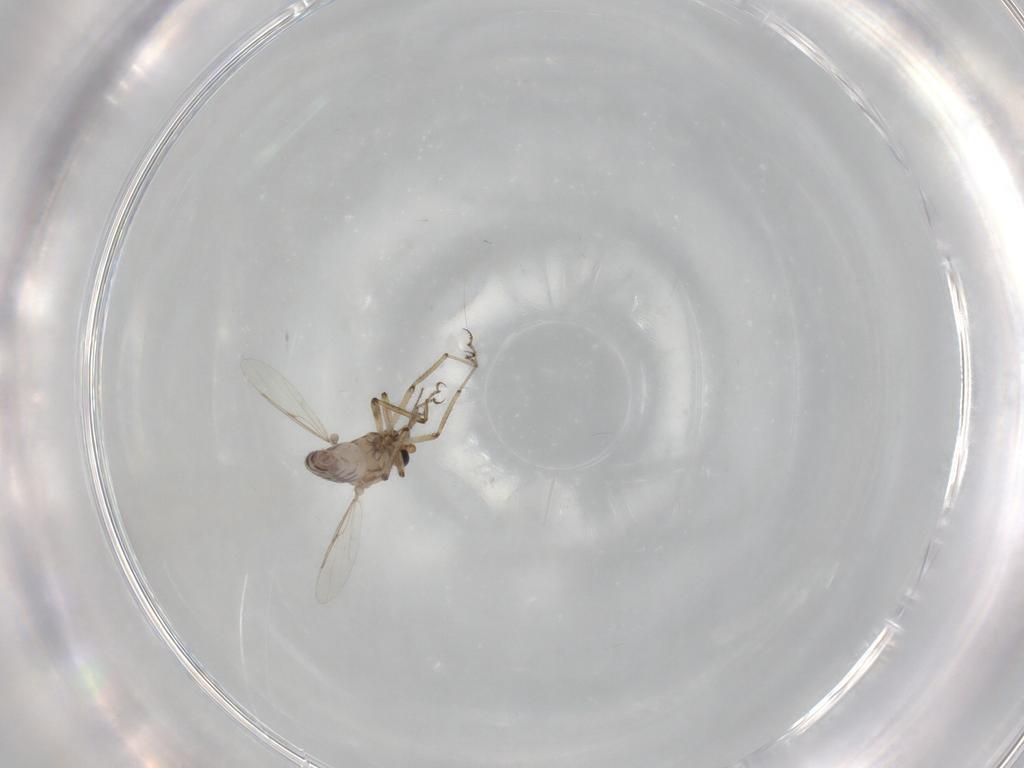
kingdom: Animalia
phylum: Arthropoda
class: Insecta
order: Diptera
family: Ceratopogonidae
